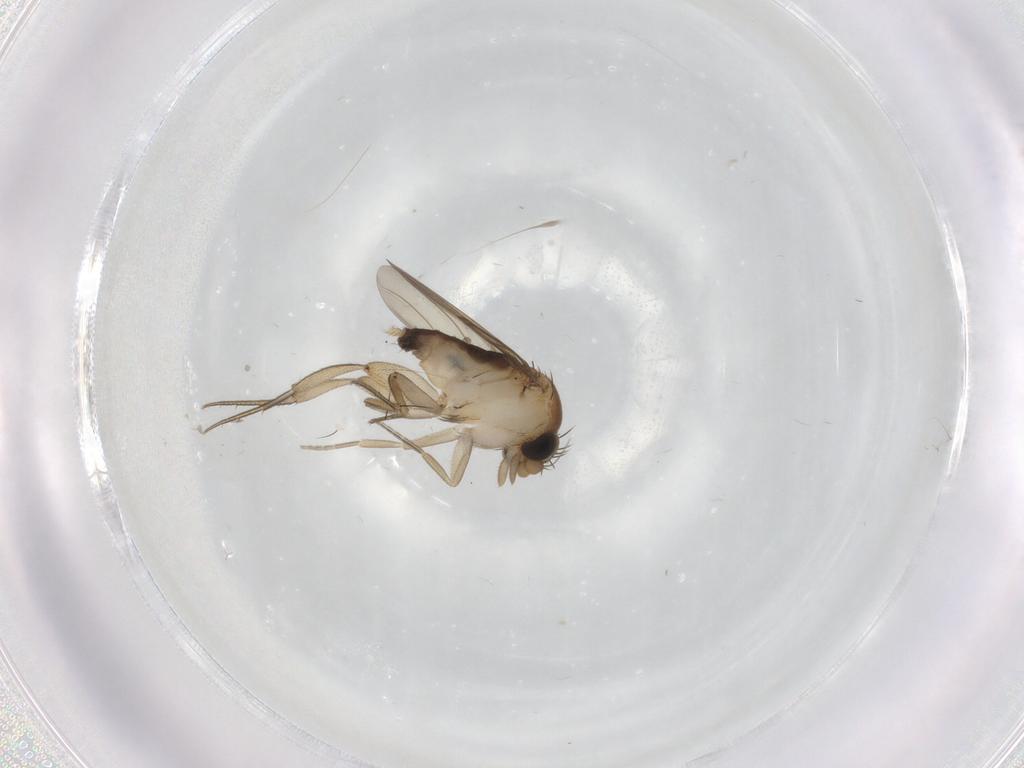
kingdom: Animalia
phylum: Arthropoda
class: Insecta
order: Diptera
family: Phoridae
